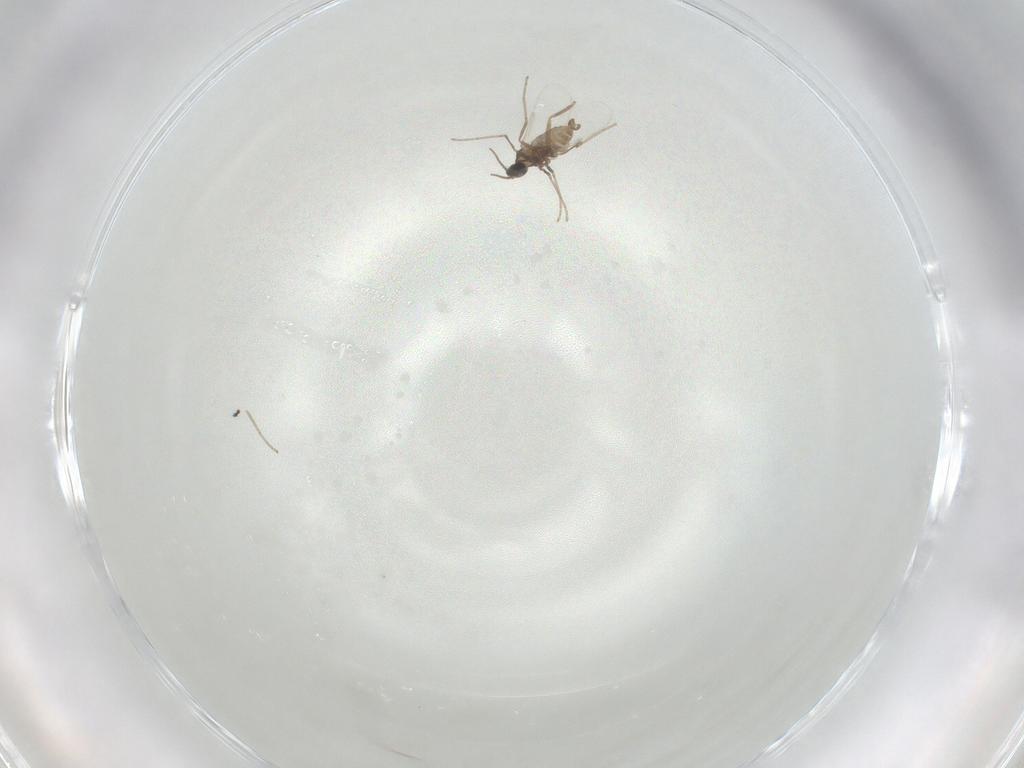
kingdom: Animalia
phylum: Arthropoda
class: Insecta
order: Diptera
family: Cecidomyiidae
